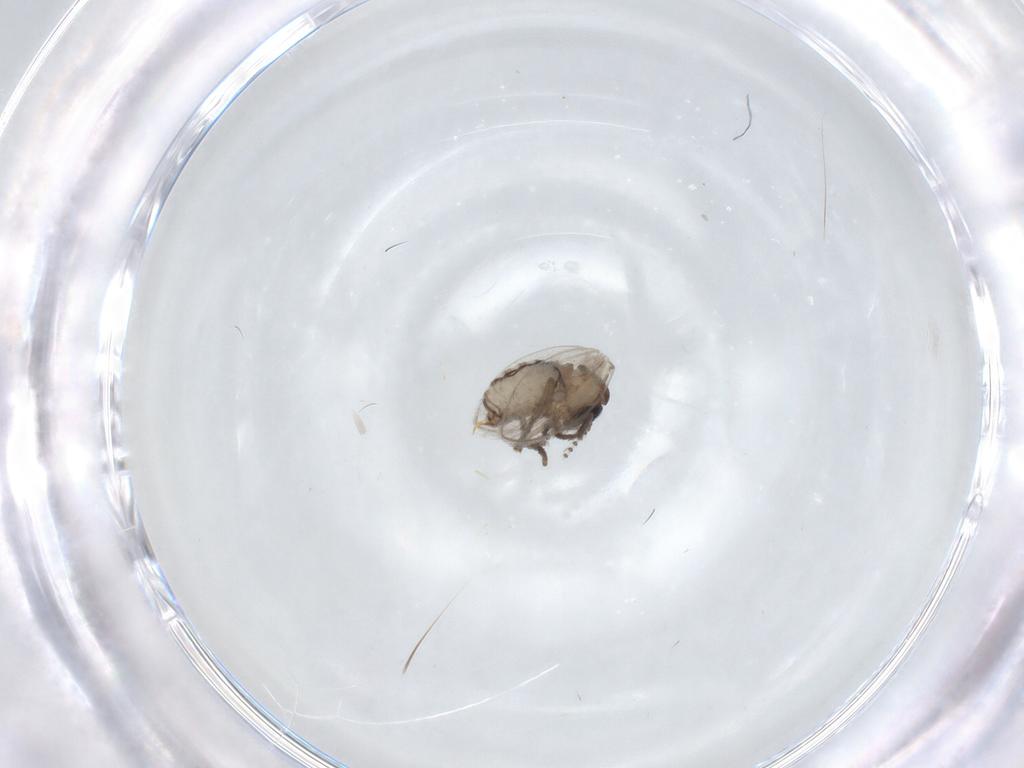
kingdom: Animalia
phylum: Arthropoda
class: Insecta
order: Diptera
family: Psychodidae
